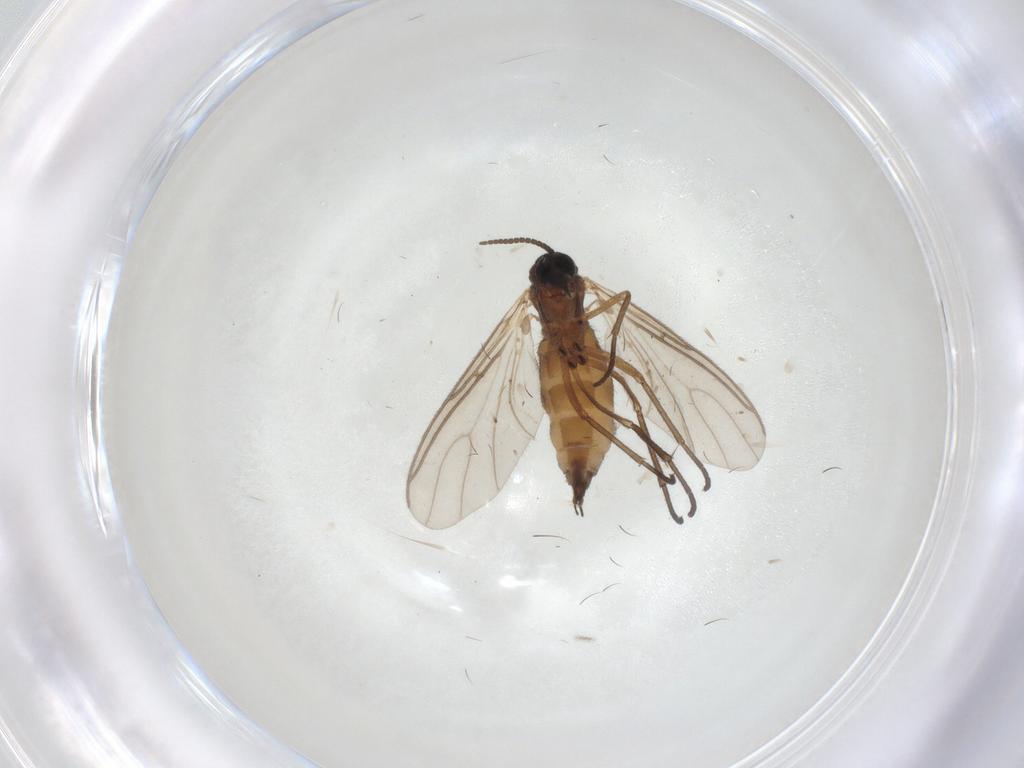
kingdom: Animalia
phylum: Arthropoda
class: Insecta
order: Diptera
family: Sciaridae
